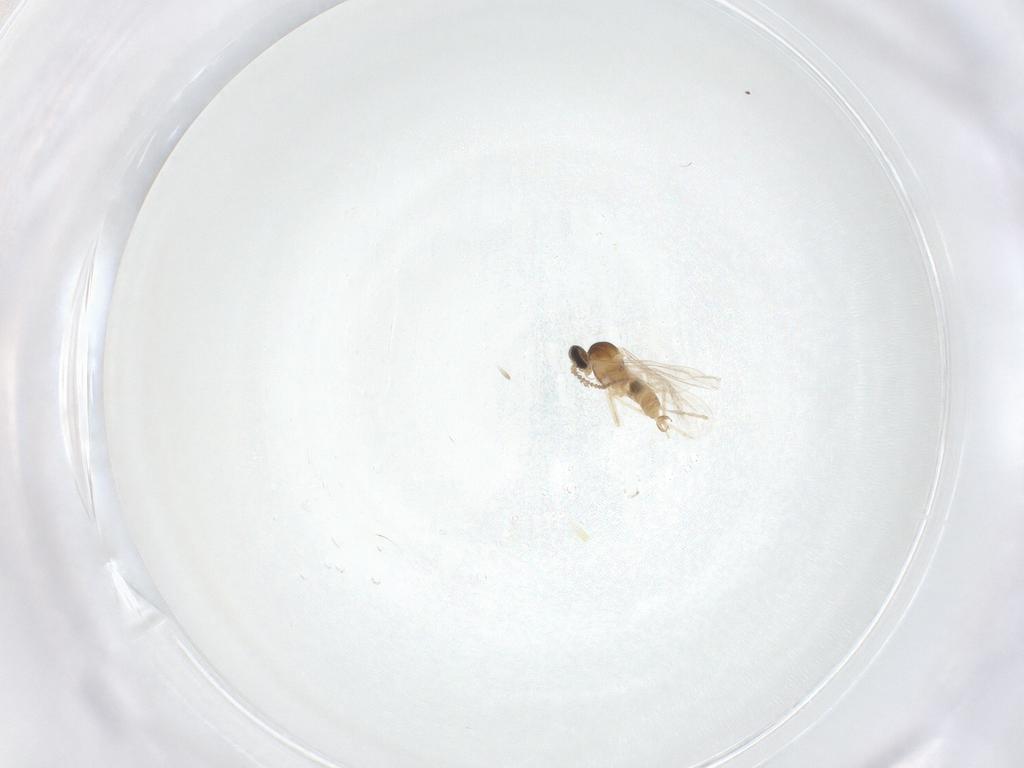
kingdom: Animalia
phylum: Arthropoda
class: Insecta
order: Diptera
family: Cecidomyiidae
